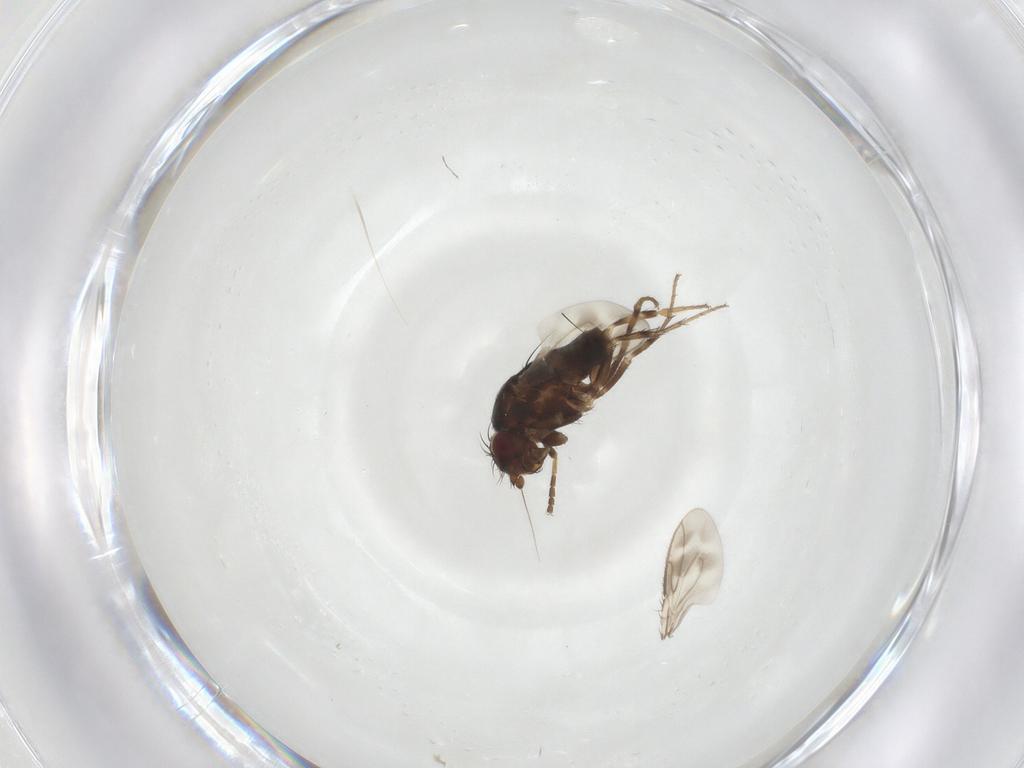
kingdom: Animalia
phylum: Arthropoda
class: Insecta
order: Diptera
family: Sphaeroceridae
